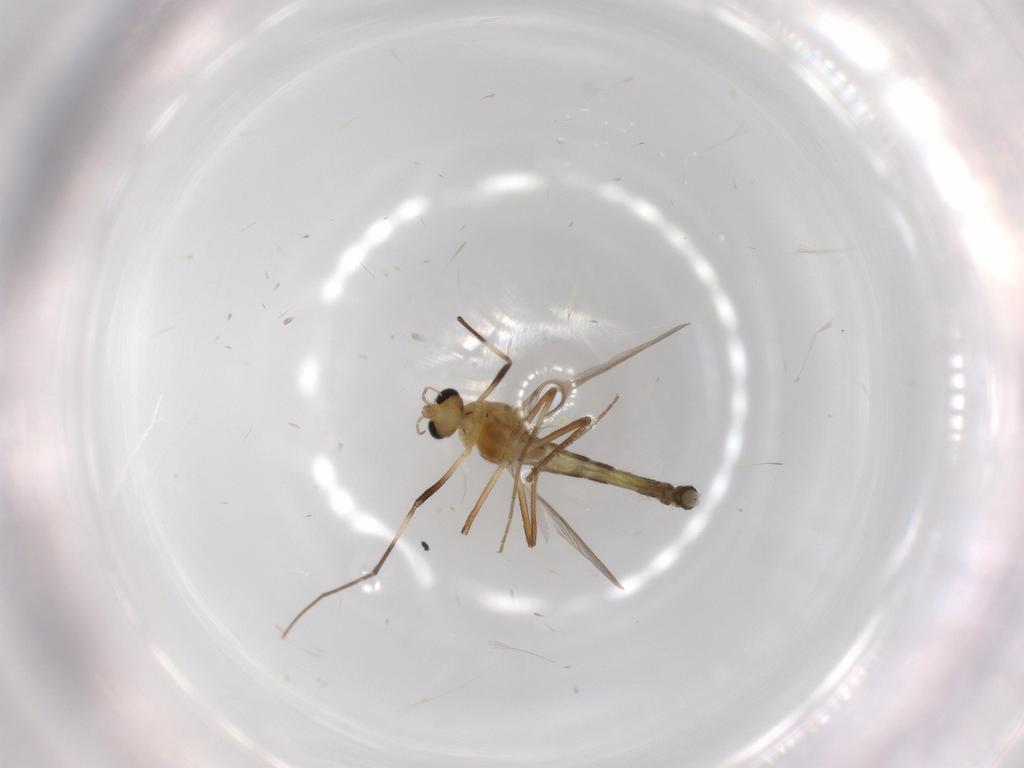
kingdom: Animalia
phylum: Arthropoda
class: Insecta
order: Diptera
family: Chironomidae
